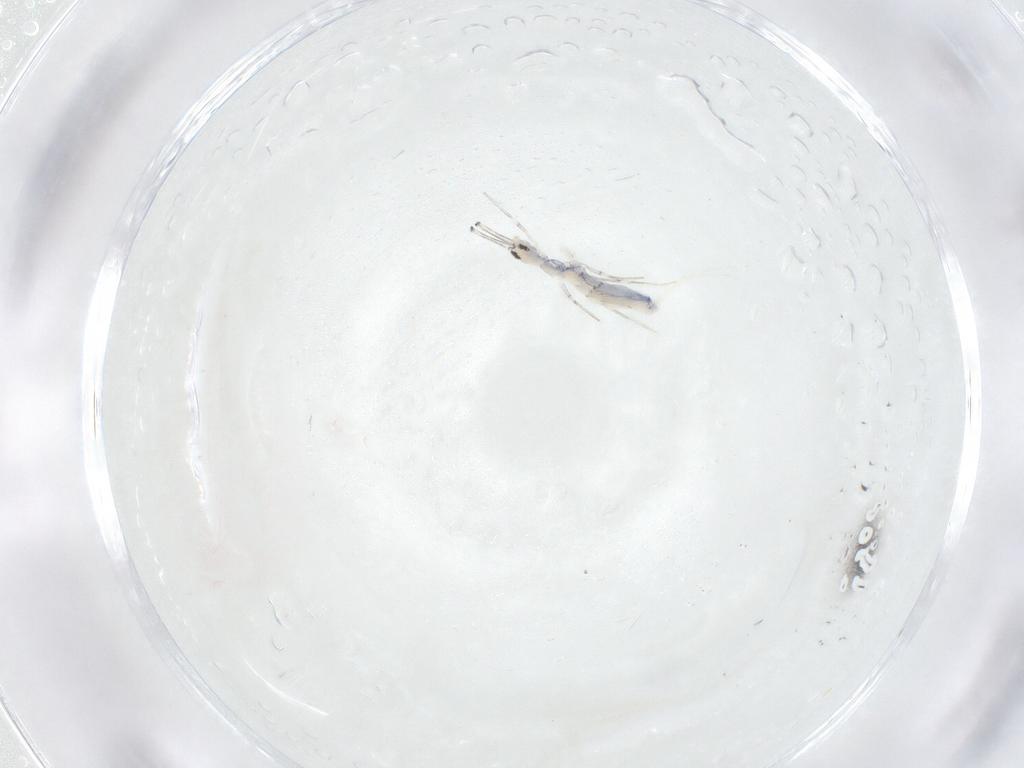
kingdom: Animalia
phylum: Arthropoda
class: Collembola
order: Entomobryomorpha
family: Paronellidae
